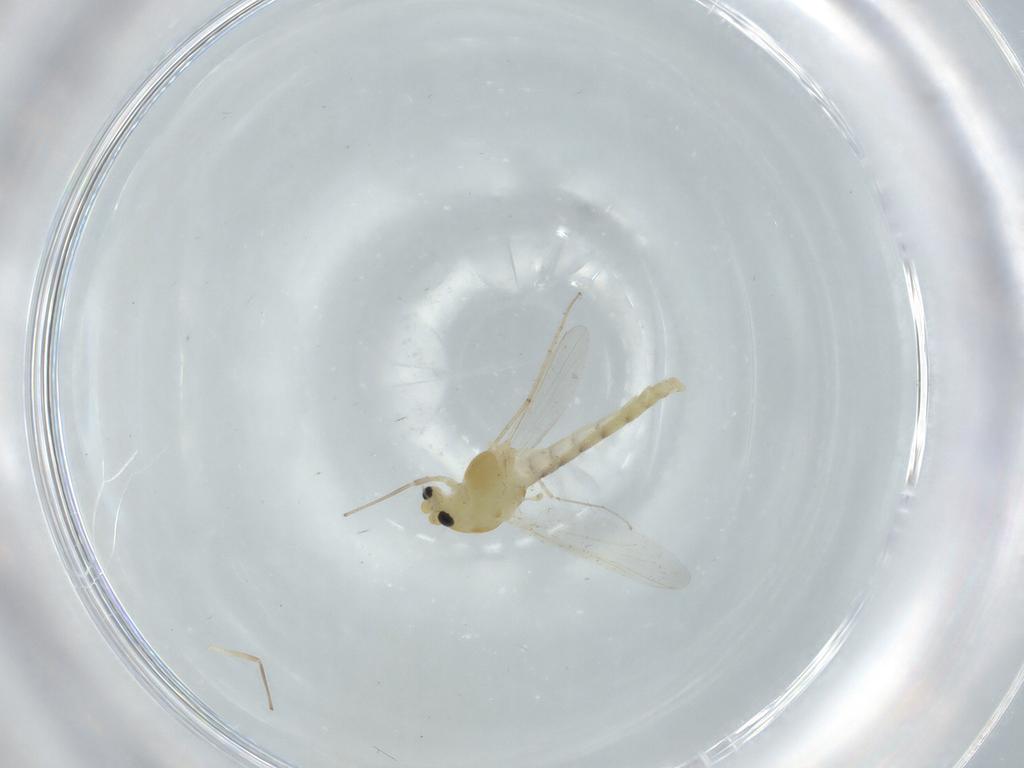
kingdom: Animalia
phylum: Arthropoda
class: Insecta
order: Diptera
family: Chironomidae
